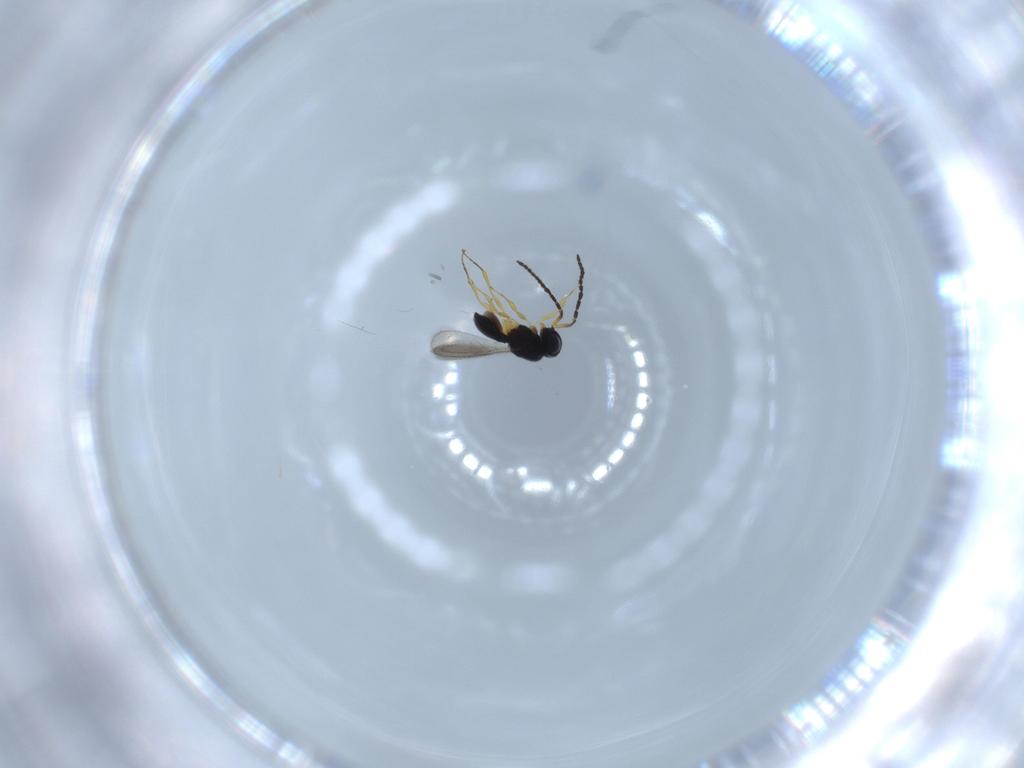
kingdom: Animalia
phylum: Arthropoda
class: Insecta
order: Hymenoptera
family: Scelionidae
